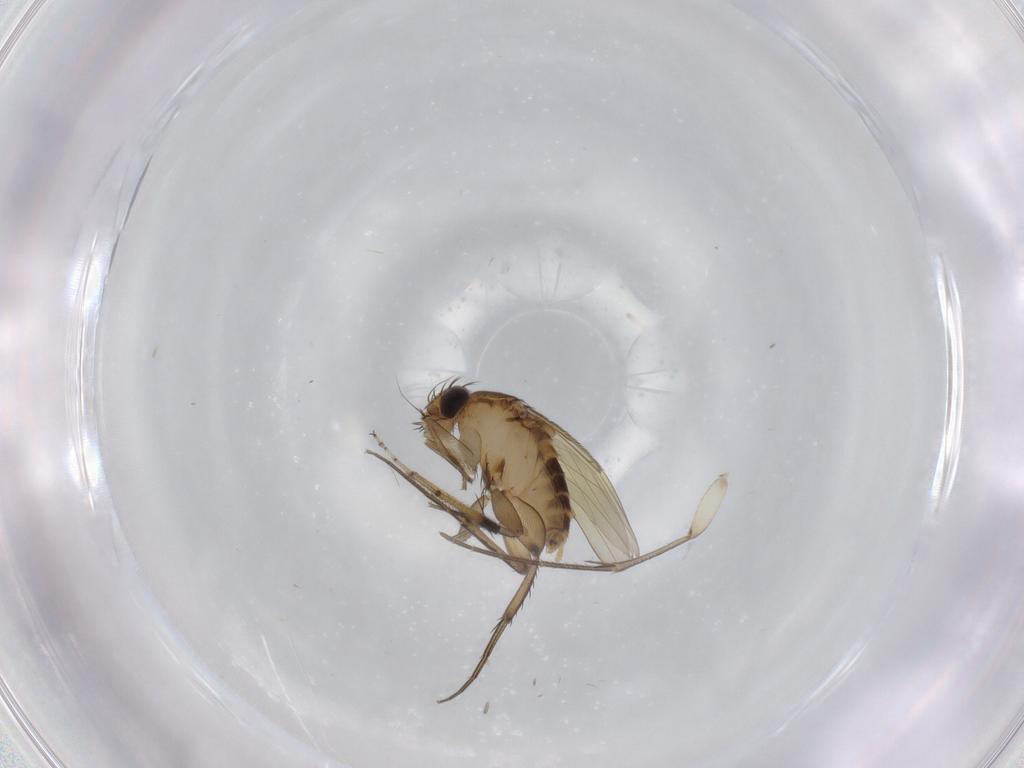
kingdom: Animalia
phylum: Arthropoda
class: Insecta
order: Diptera
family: Phoridae
